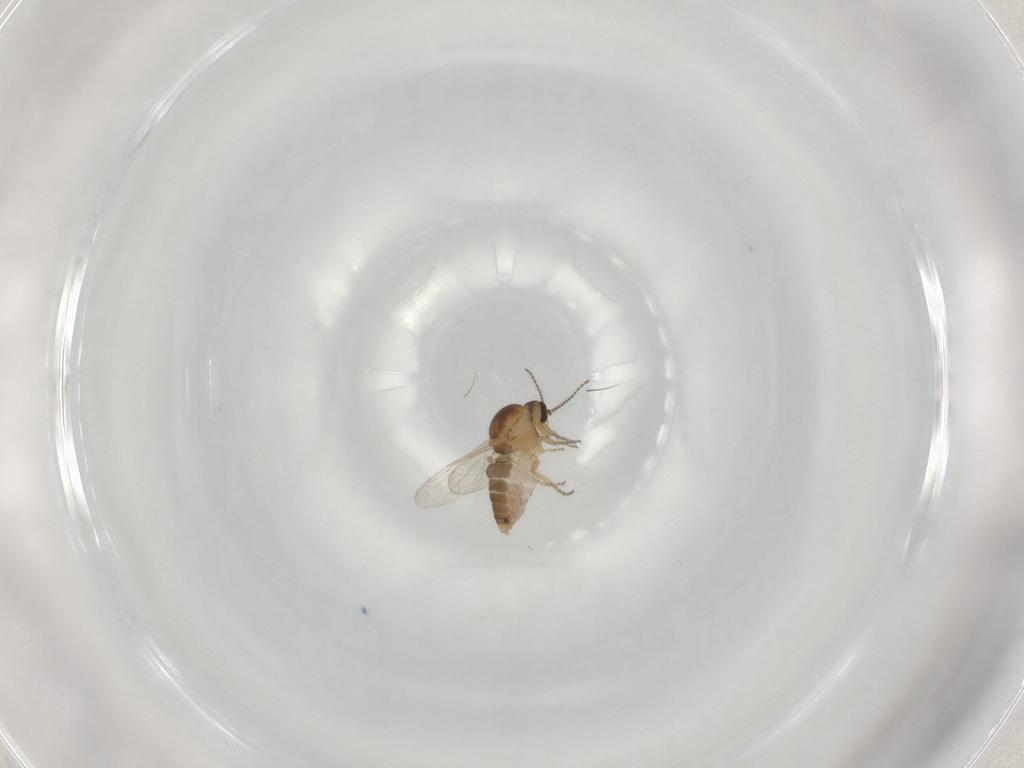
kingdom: Animalia
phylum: Arthropoda
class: Insecta
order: Diptera
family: Ceratopogonidae
